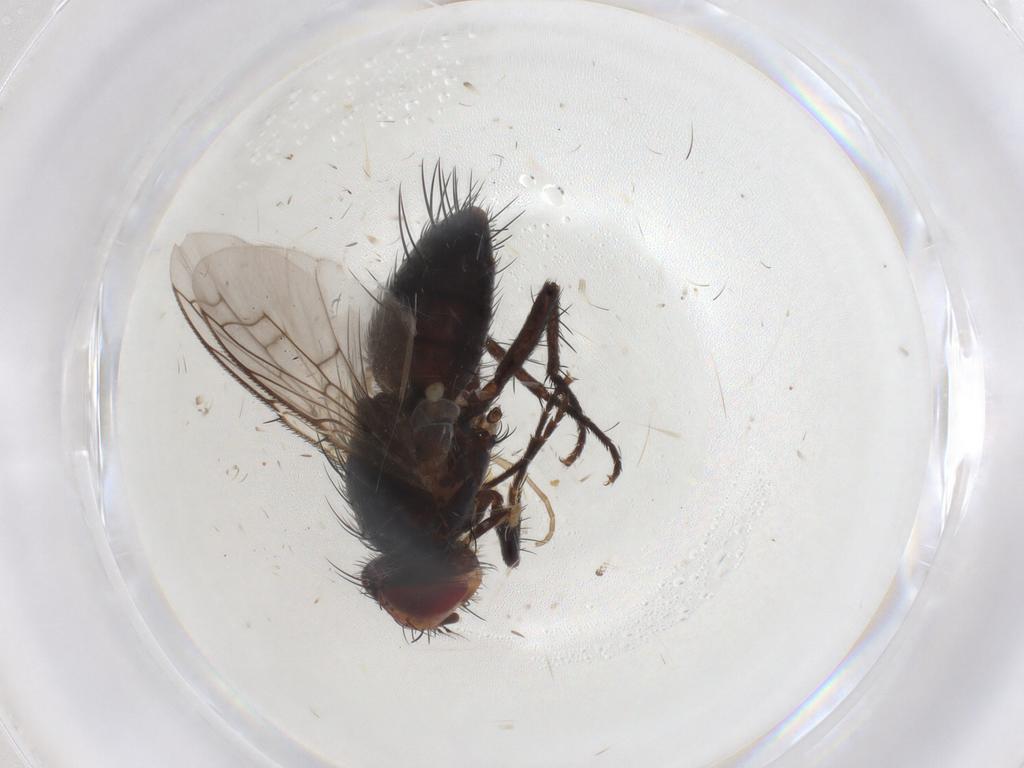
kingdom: Animalia
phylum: Arthropoda
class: Insecta
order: Diptera
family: Tachinidae
